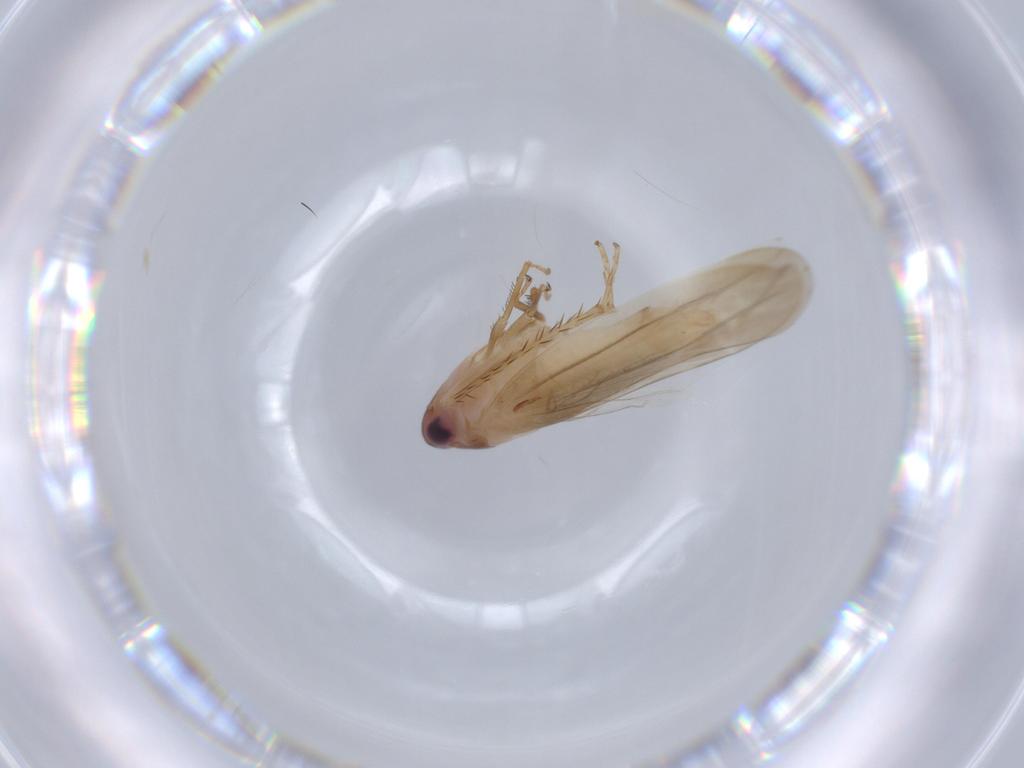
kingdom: Animalia
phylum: Arthropoda
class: Insecta
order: Hemiptera
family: Cicadellidae
